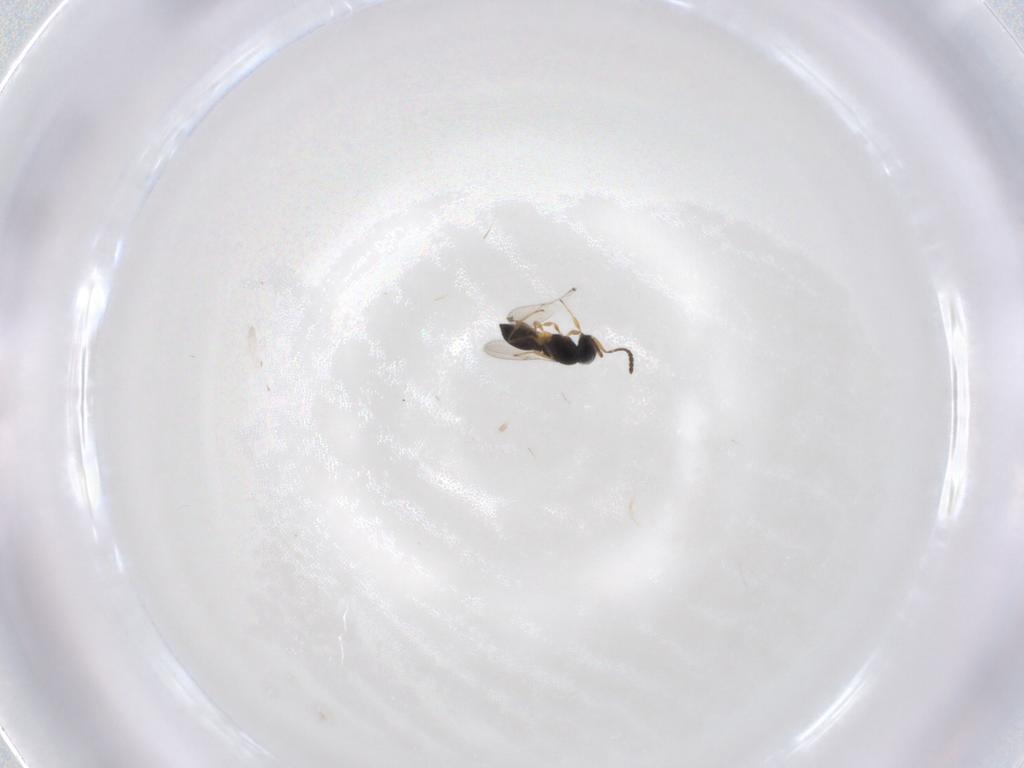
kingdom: Animalia
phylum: Arthropoda
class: Insecta
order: Hymenoptera
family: Scelionidae
